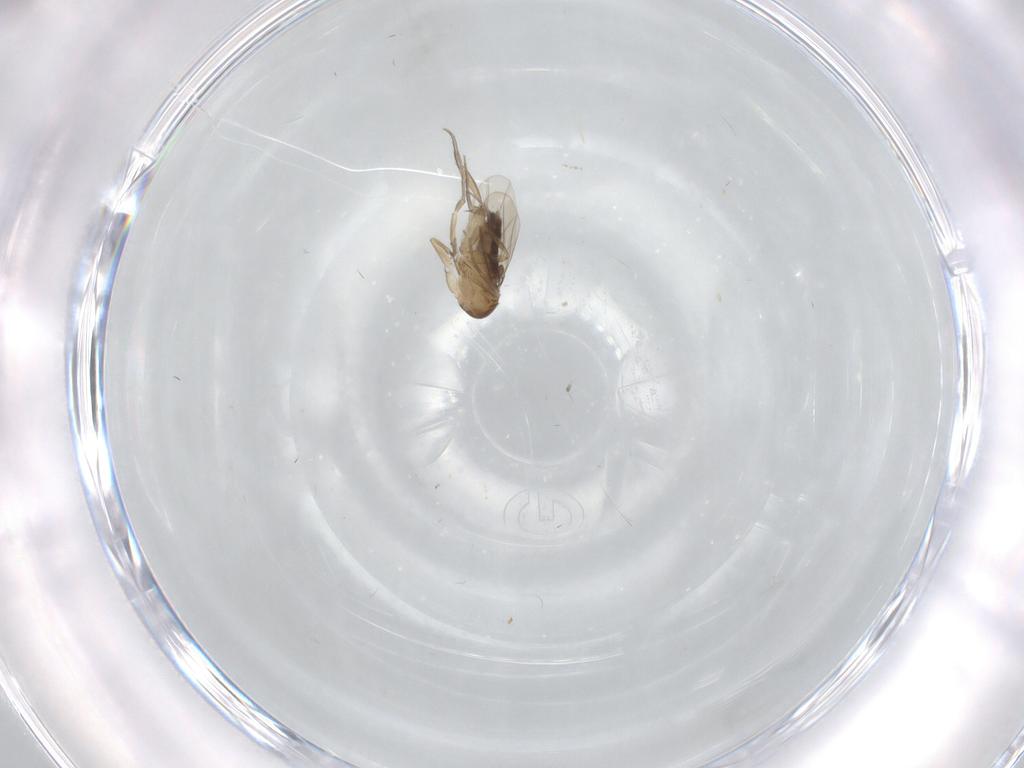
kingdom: Animalia
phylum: Arthropoda
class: Insecta
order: Diptera
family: Phoridae
